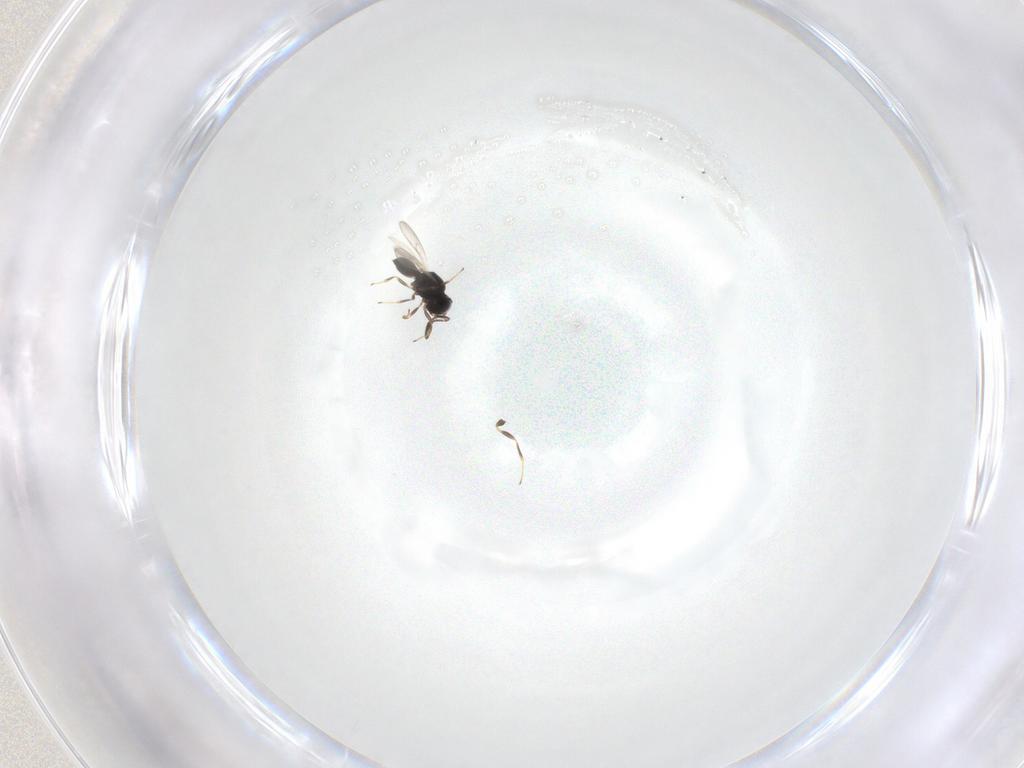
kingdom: Animalia
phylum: Arthropoda
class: Insecta
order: Hymenoptera
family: Scelionidae
